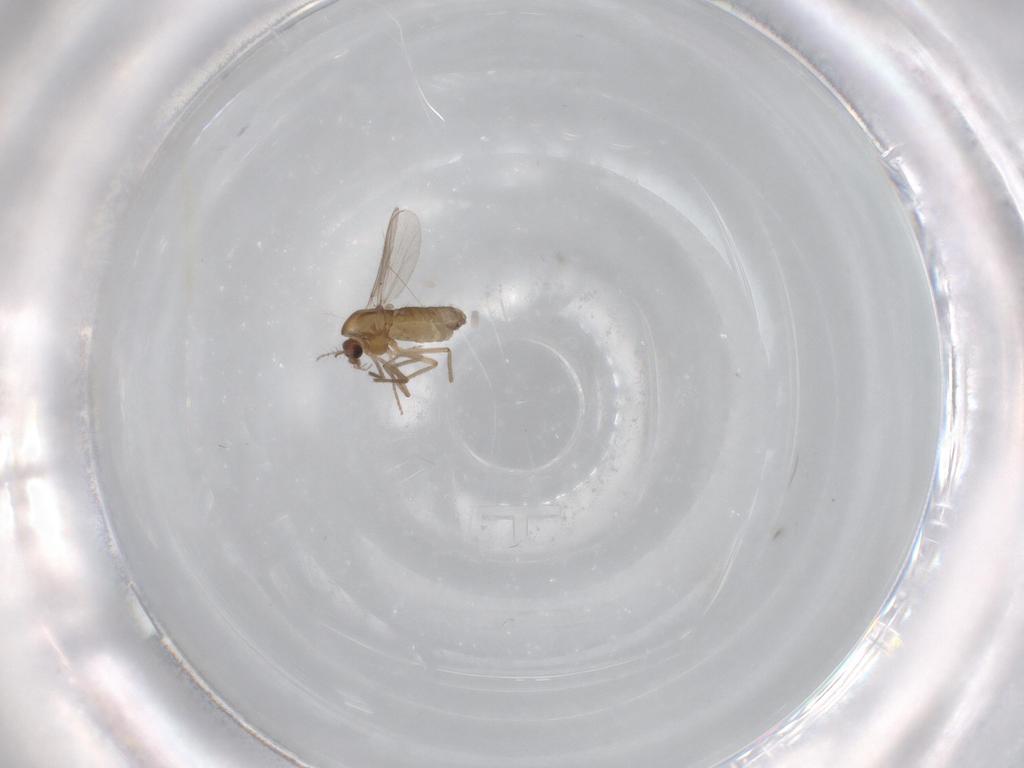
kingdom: Animalia
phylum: Arthropoda
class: Insecta
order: Diptera
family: Chironomidae
